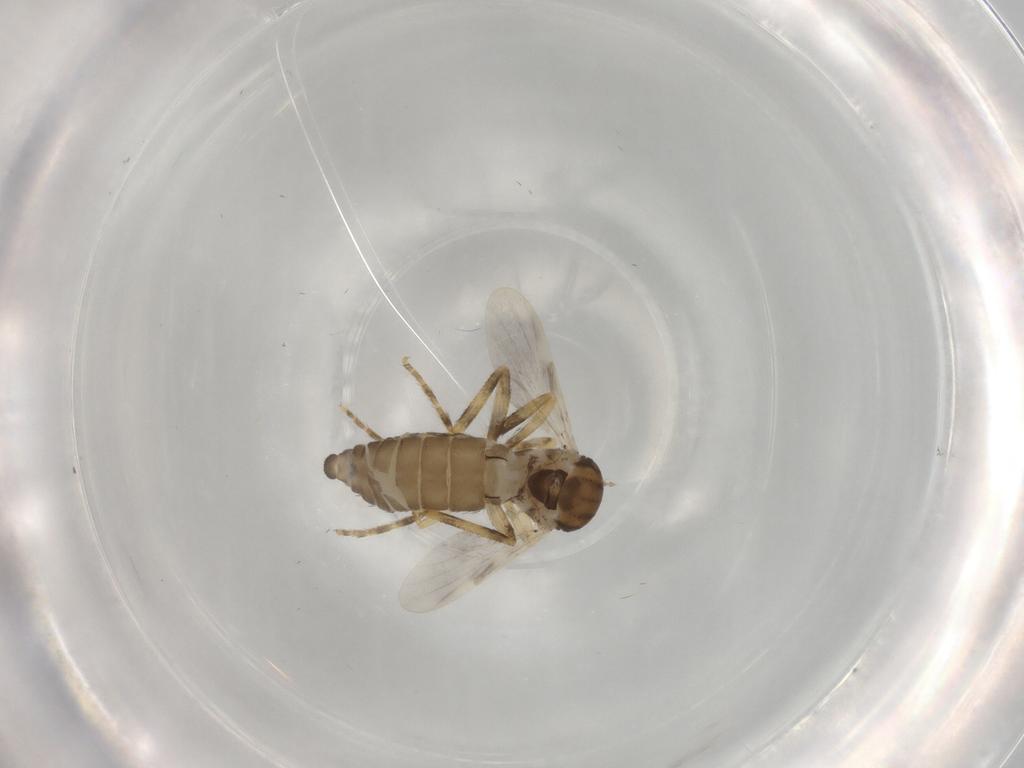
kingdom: Animalia
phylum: Arthropoda
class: Insecta
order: Diptera
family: Ceratopogonidae
